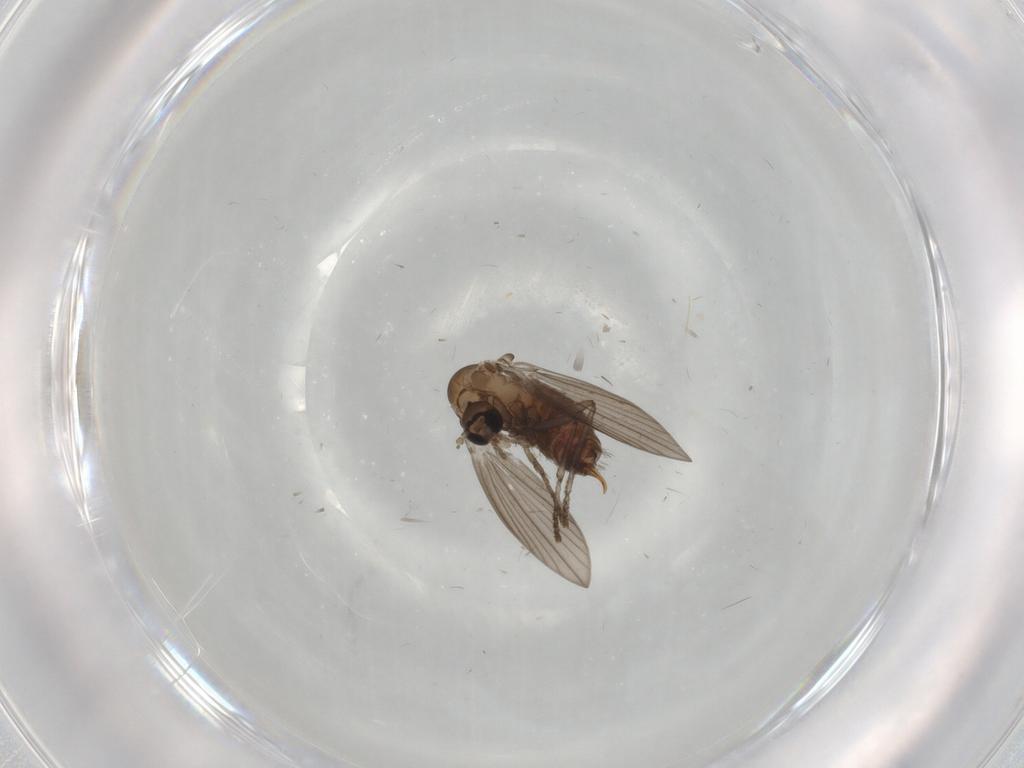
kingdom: Animalia
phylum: Arthropoda
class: Insecta
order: Diptera
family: Psychodidae
